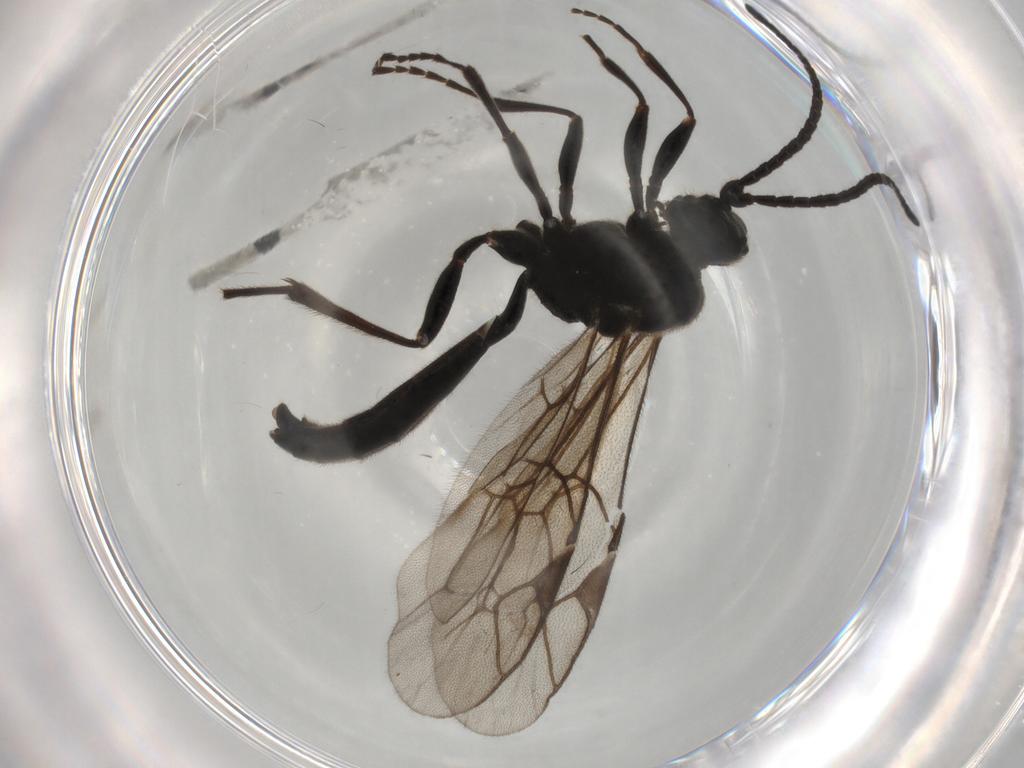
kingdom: Animalia
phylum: Arthropoda
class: Insecta
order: Hymenoptera
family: Ichneumonidae
